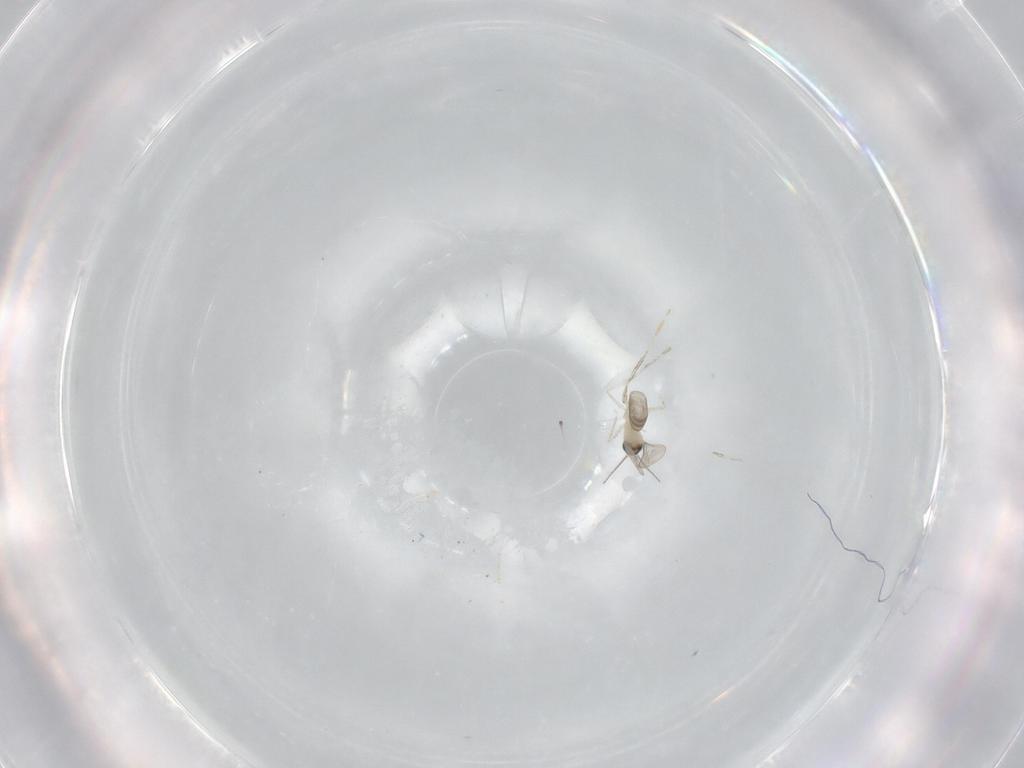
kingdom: Animalia
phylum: Arthropoda
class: Insecta
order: Diptera
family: Cecidomyiidae
